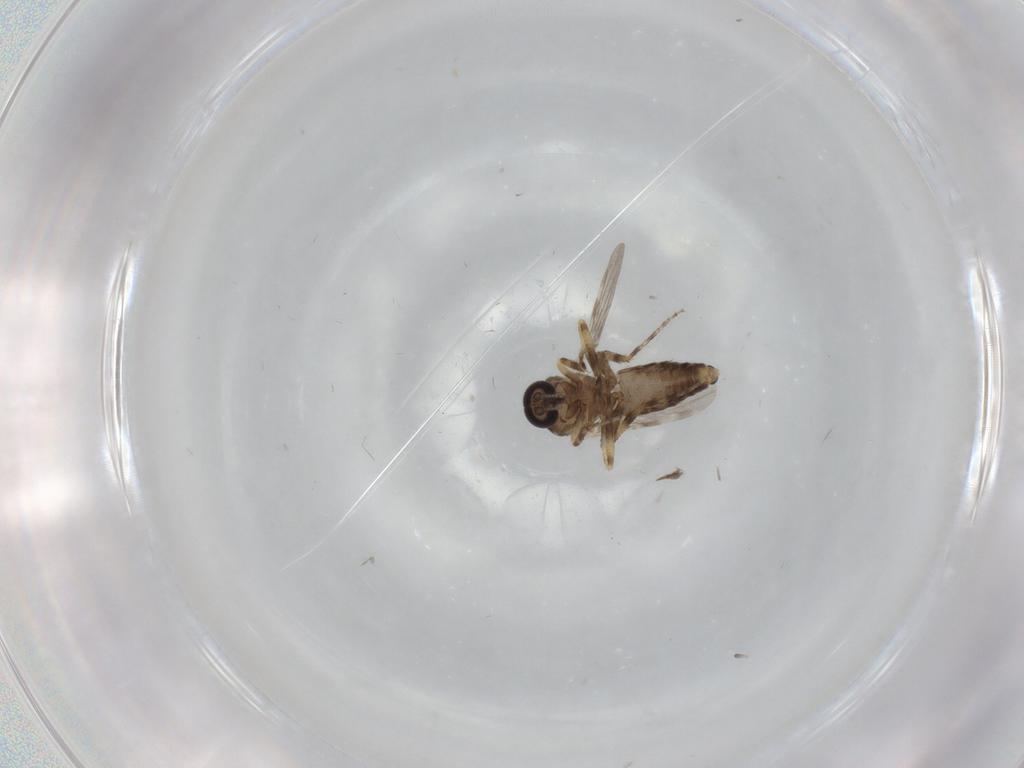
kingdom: Animalia
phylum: Arthropoda
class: Insecta
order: Diptera
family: Ceratopogonidae
